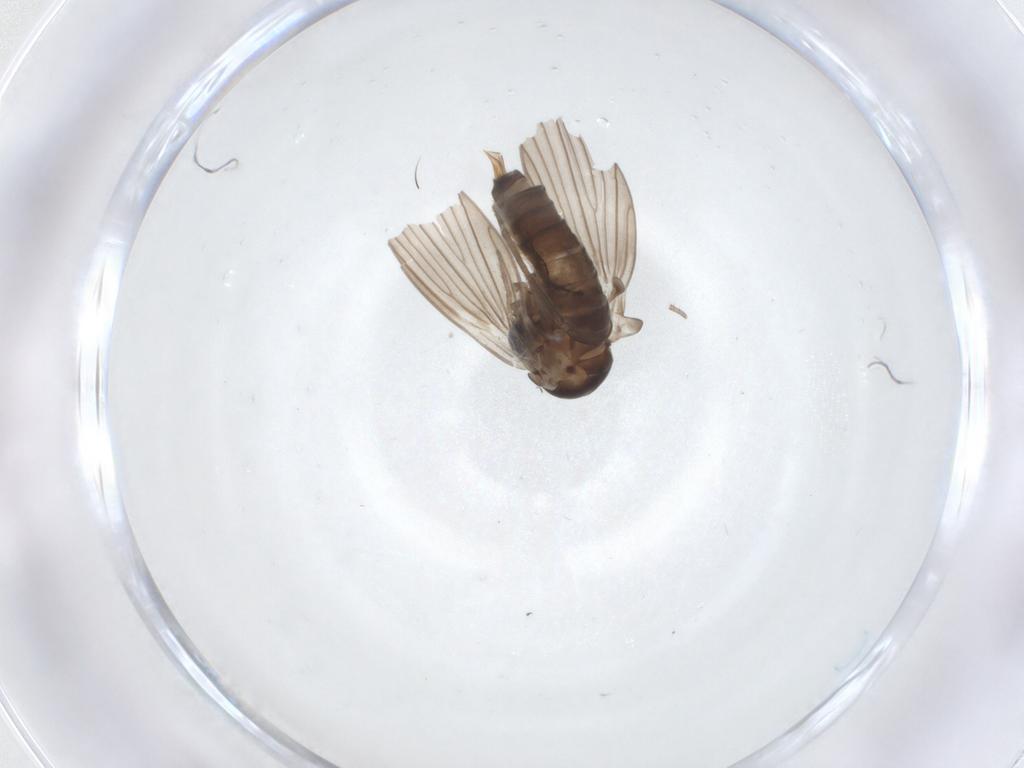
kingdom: Animalia
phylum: Arthropoda
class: Insecta
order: Diptera
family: Psychodidae
